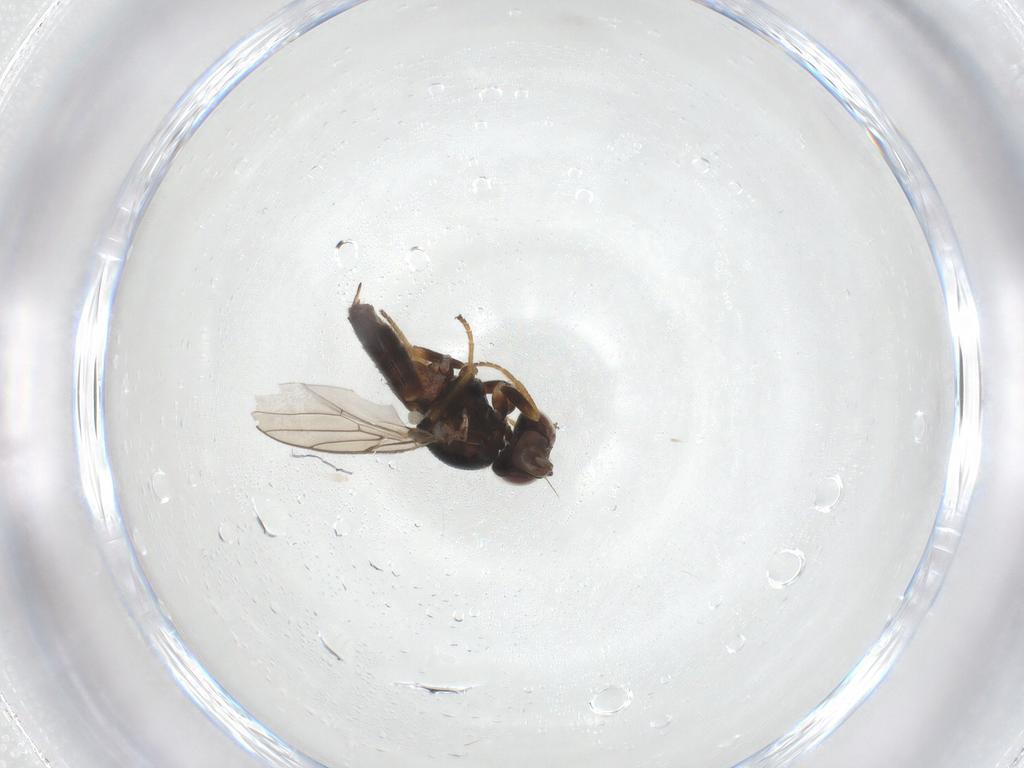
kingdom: Animalia
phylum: Arthropoda
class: Insecta
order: Diptera
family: Chloropidae
